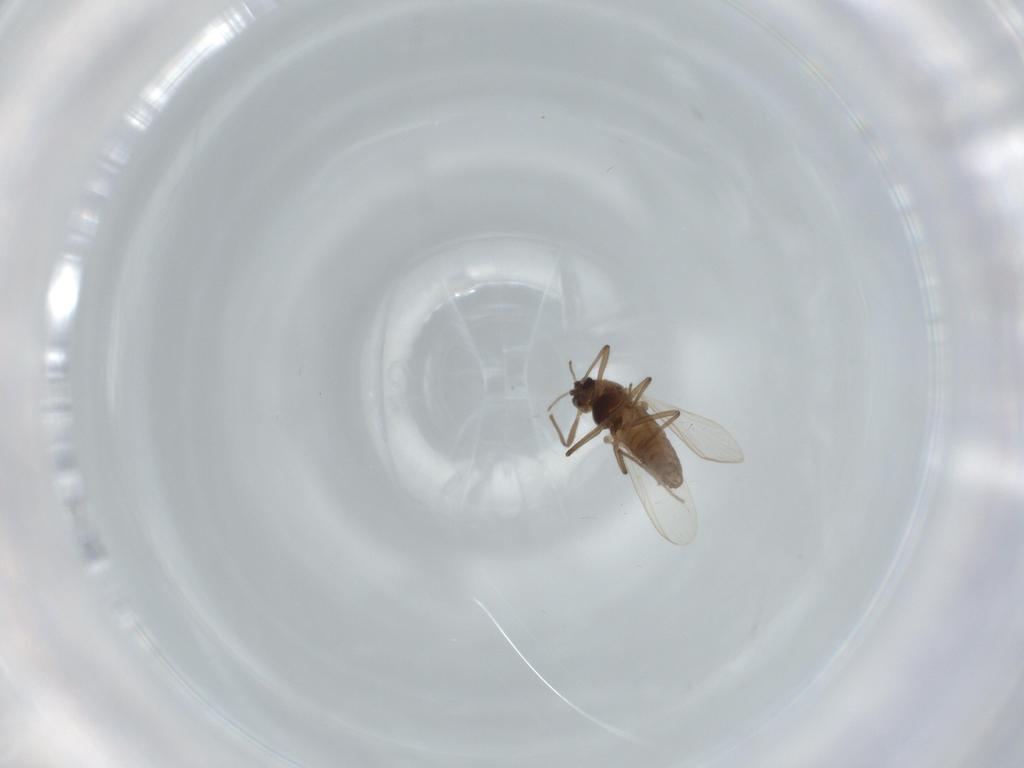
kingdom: Animalia
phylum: Arthropoda
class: Insecta
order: Diptera
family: Chironomidae
